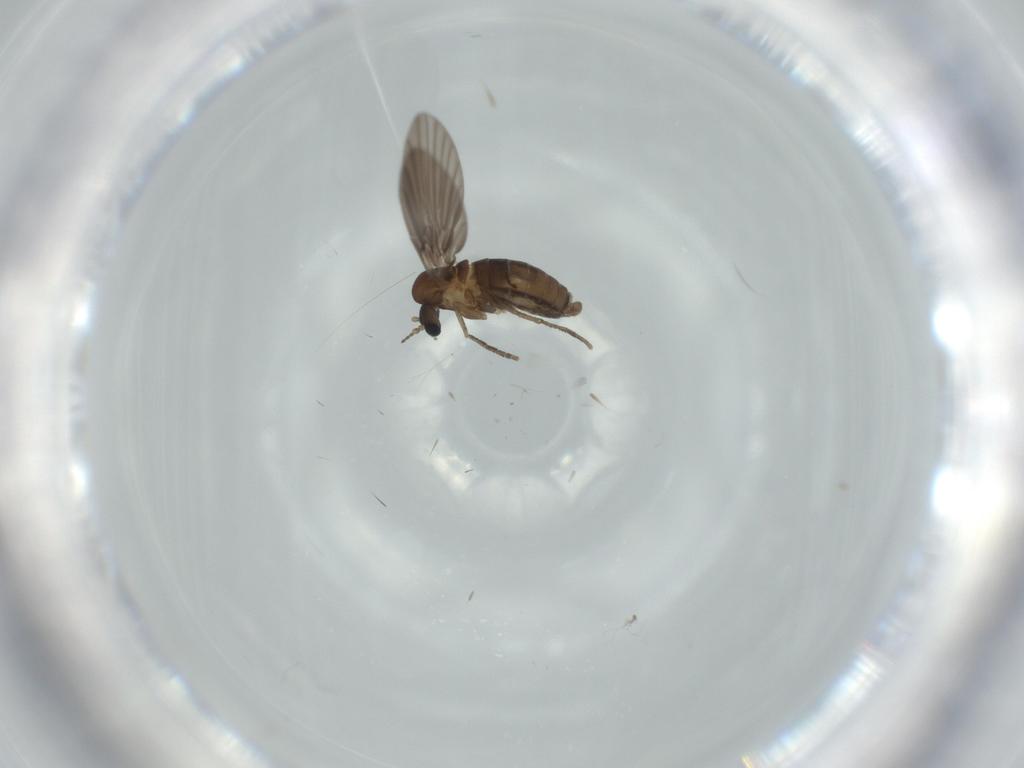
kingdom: Animalia
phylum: Arthropoda
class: Insecta
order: Diptera
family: Psychodidae
